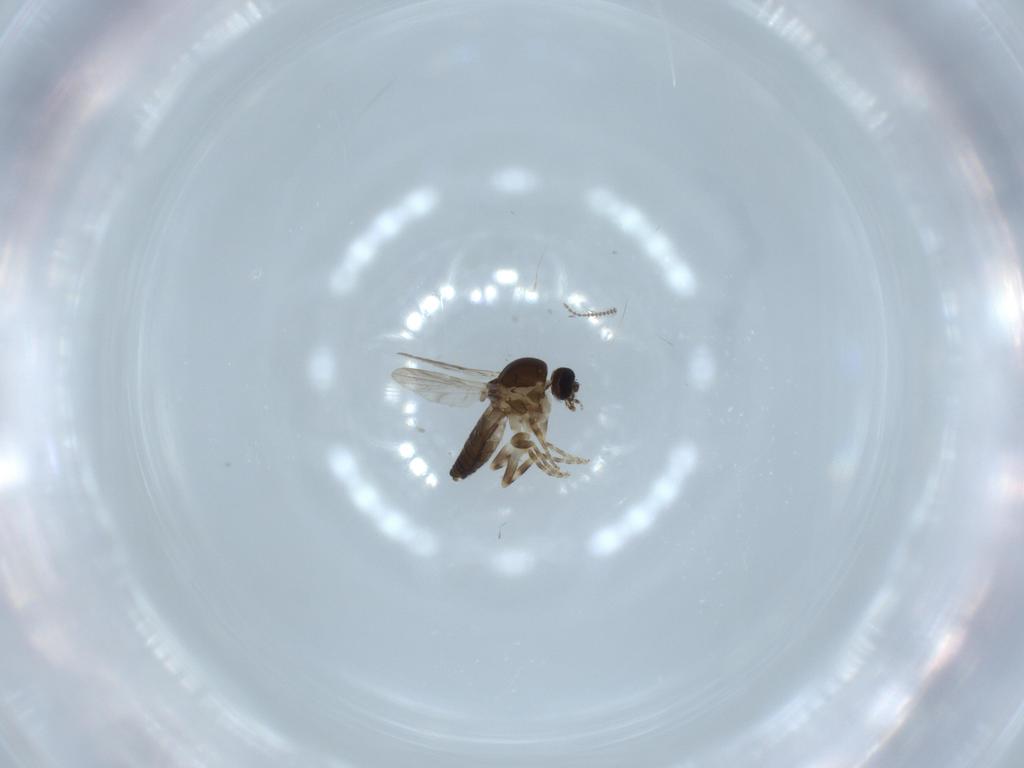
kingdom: Animalia
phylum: Arthropoda
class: Insecta
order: Diptera
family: Ceratopogonidae
